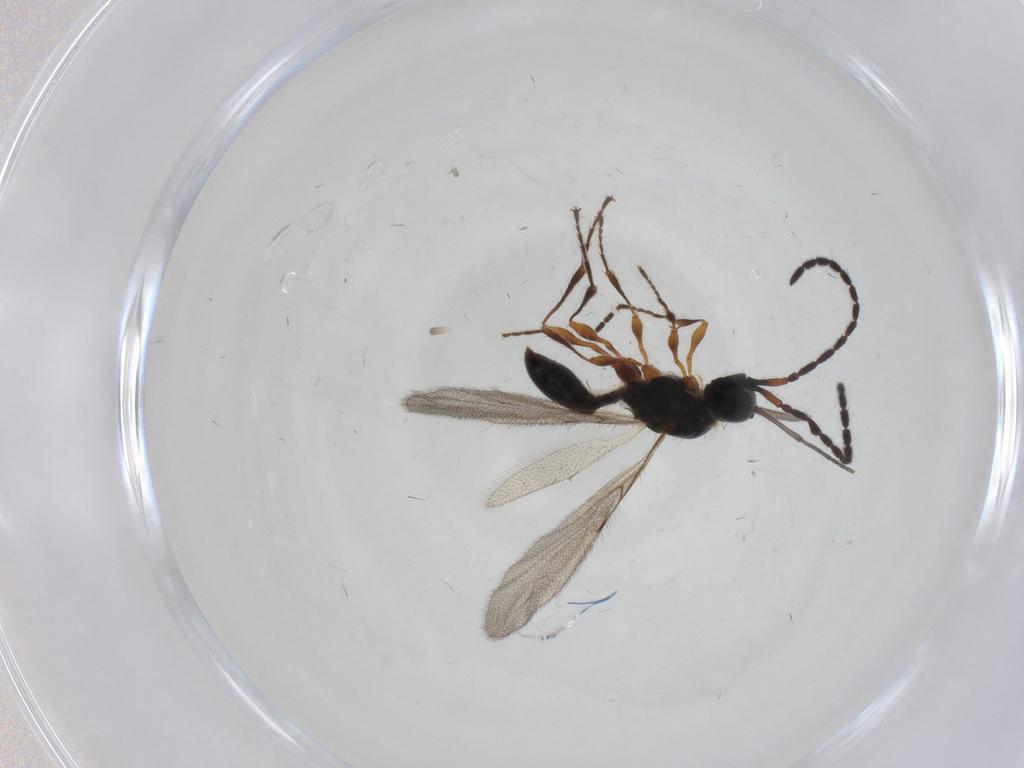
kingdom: Animalia
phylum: Arthropoda
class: Insecta
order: Hymenoptera
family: Diapriidae
